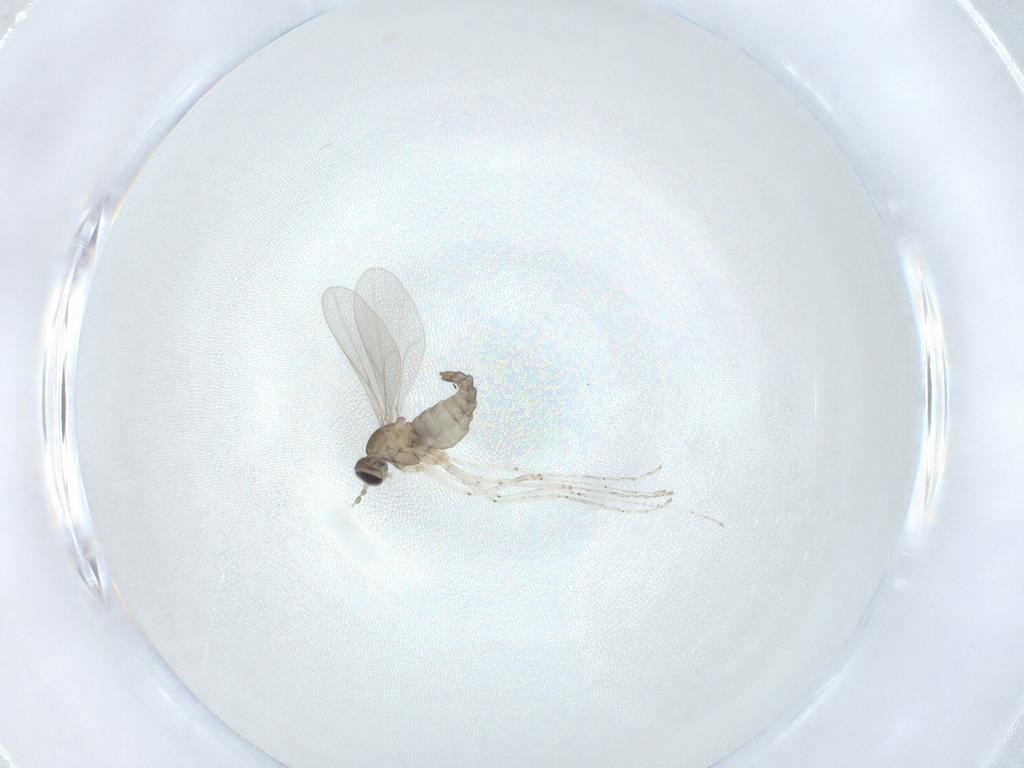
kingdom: Animalia
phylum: Arthropoda
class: Insecta
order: Diptera
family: Cecidomyiidae
